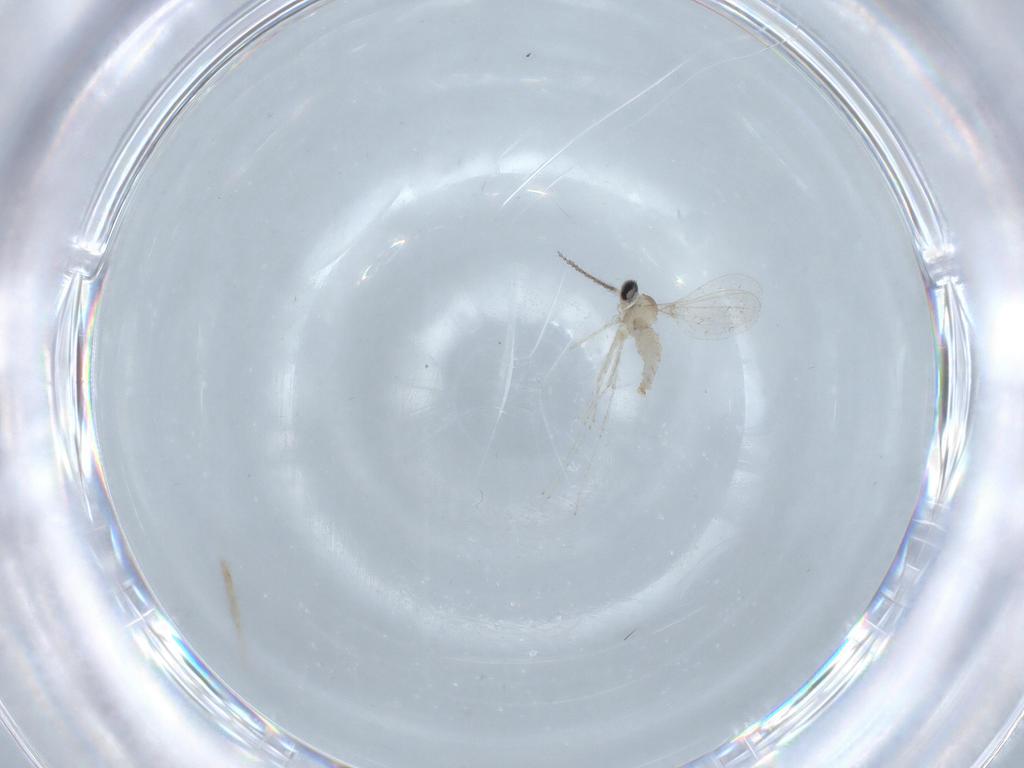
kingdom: Animalia
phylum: Arthropoda
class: Insecta
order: Diptera
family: Cecidomyiidae
